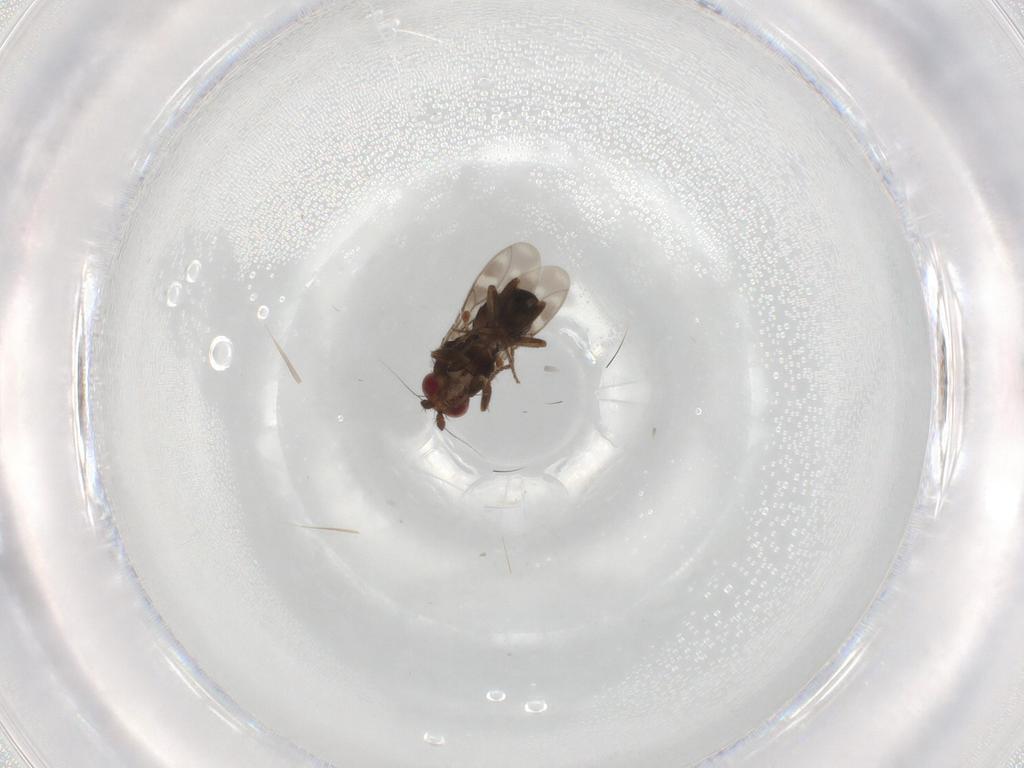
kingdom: Animalia
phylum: Arthropoda
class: Insecta
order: Diptera
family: Sphaeroceridae
